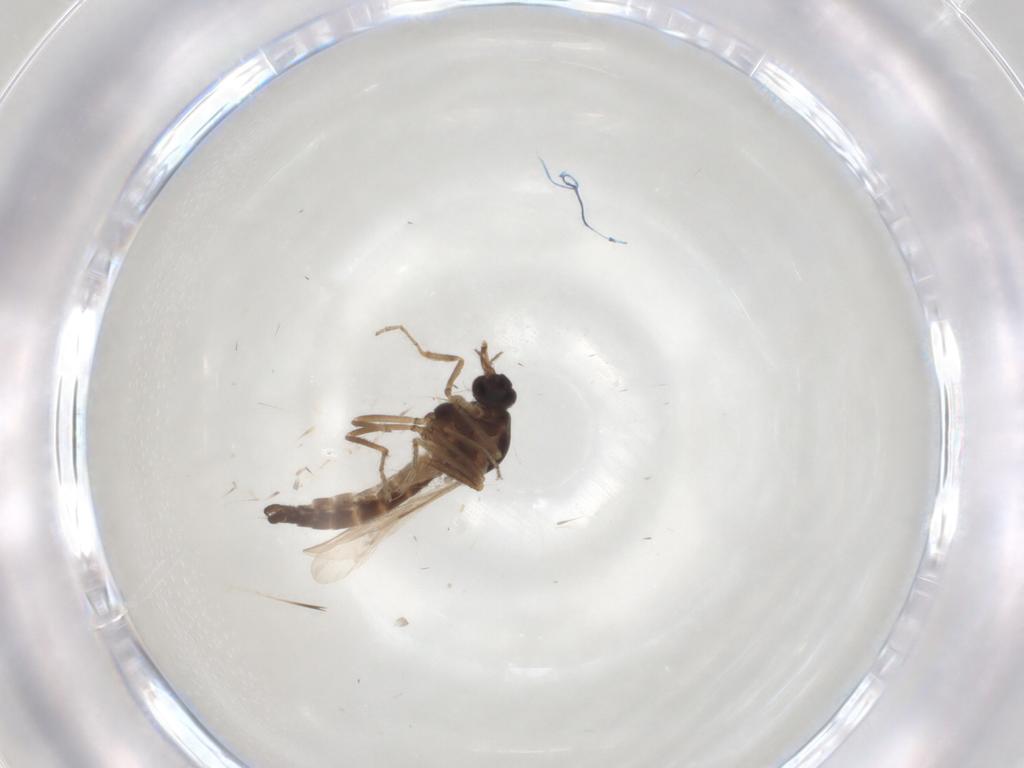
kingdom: Animalia
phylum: Arthropoda
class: Insecta
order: Diptera
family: Ceratopogonidae
